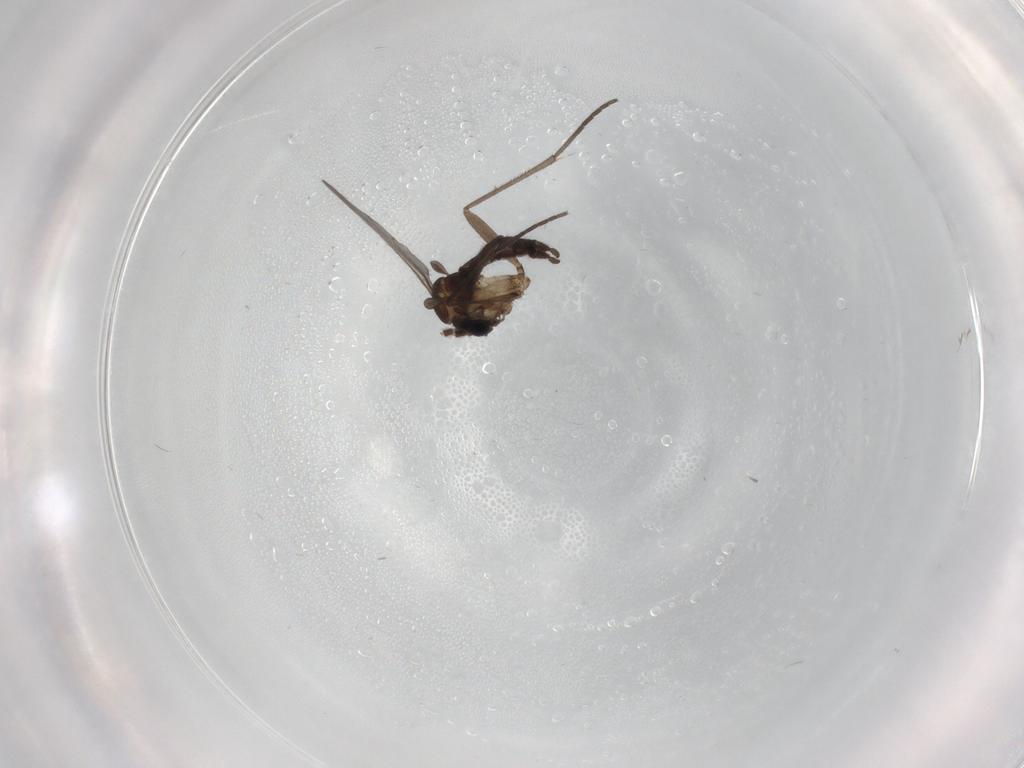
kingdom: Animalia
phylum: Arthropoda
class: Insecta
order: Diptera
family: Sciaridae
